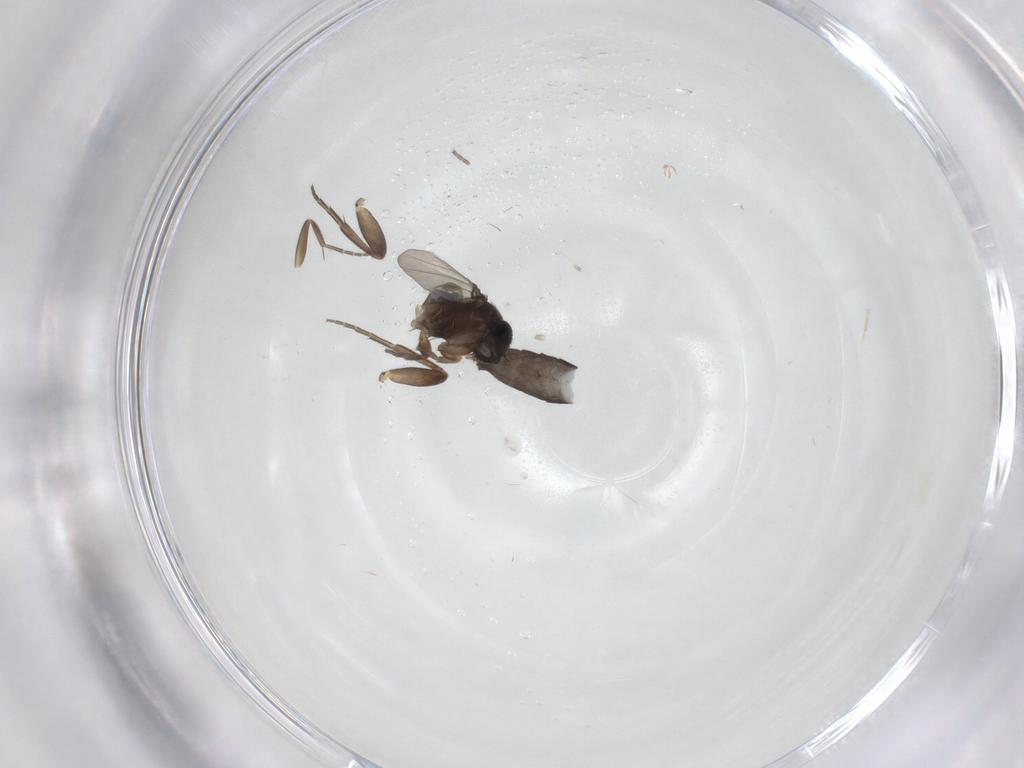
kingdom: Animalia
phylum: Arthropoda
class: Insecta
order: Diptera
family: Phoridae
